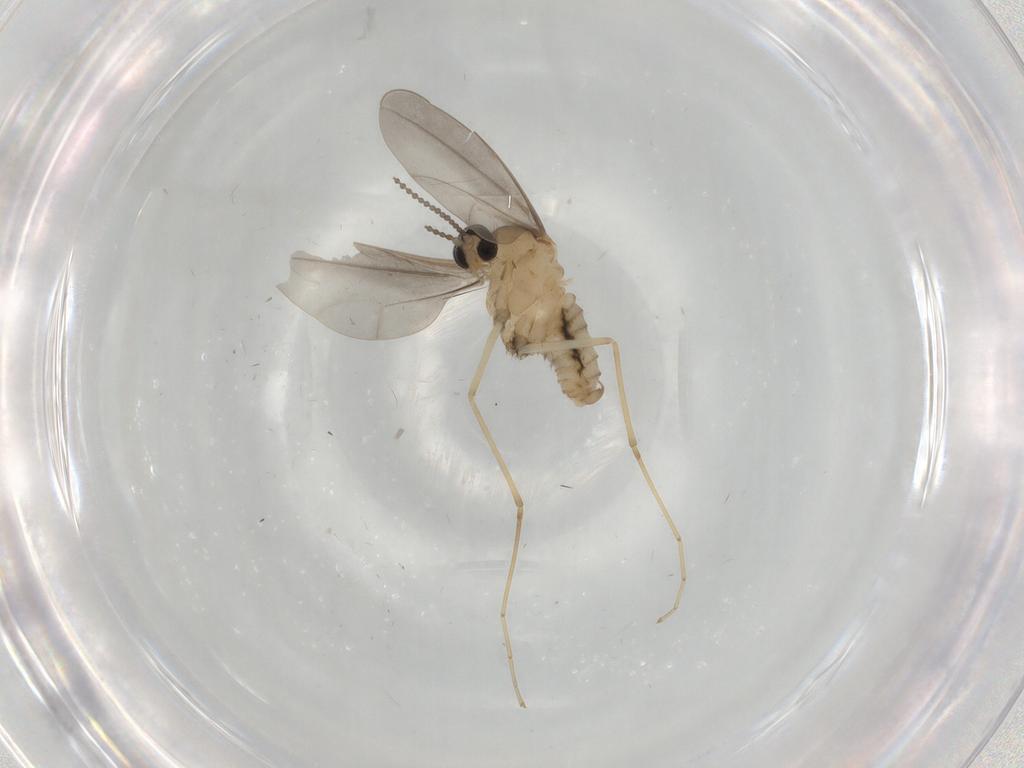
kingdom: Animalia
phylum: Arthropoda
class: Insecta
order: Diptera
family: Cecidomyiidae
